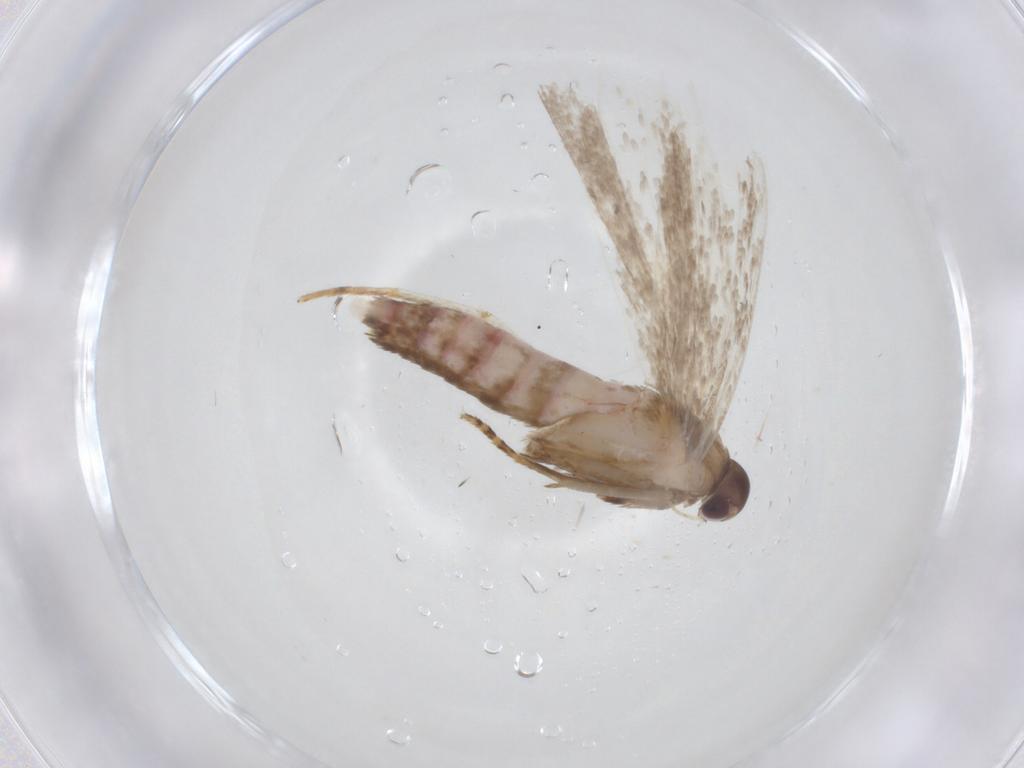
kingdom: Animalia
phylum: Arthropoda
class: Insecta
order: Lepidoptera
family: Gelechiidae
